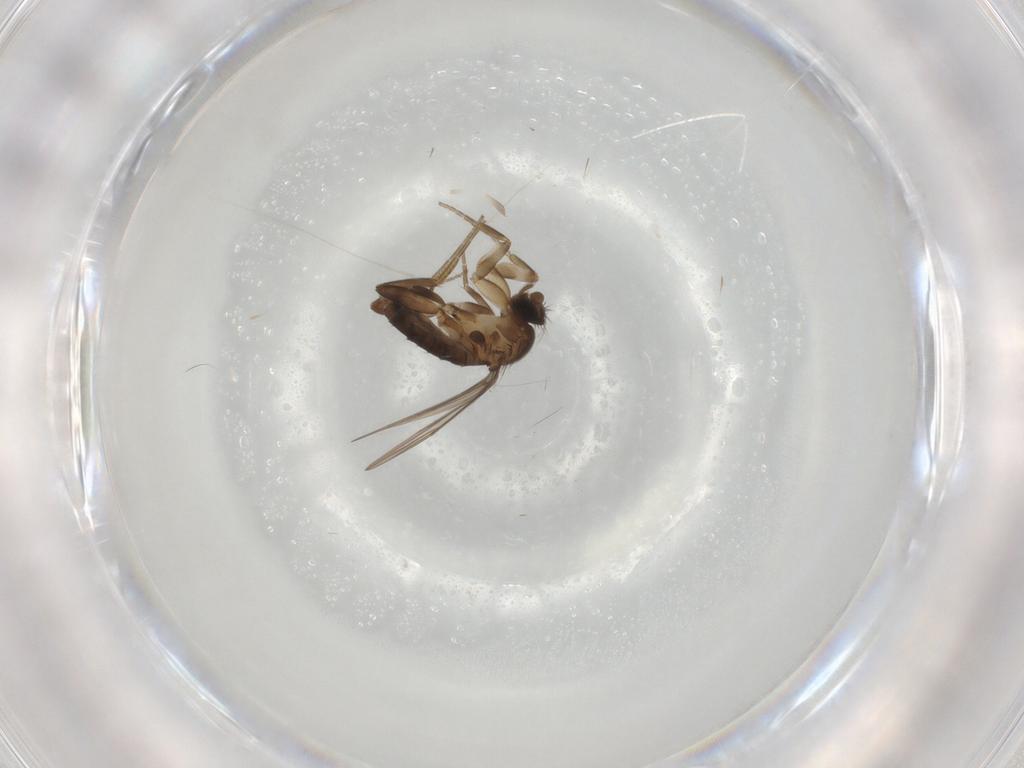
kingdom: Animalia
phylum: Arthropoda
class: Insecta
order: Diptera
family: Phoridae
